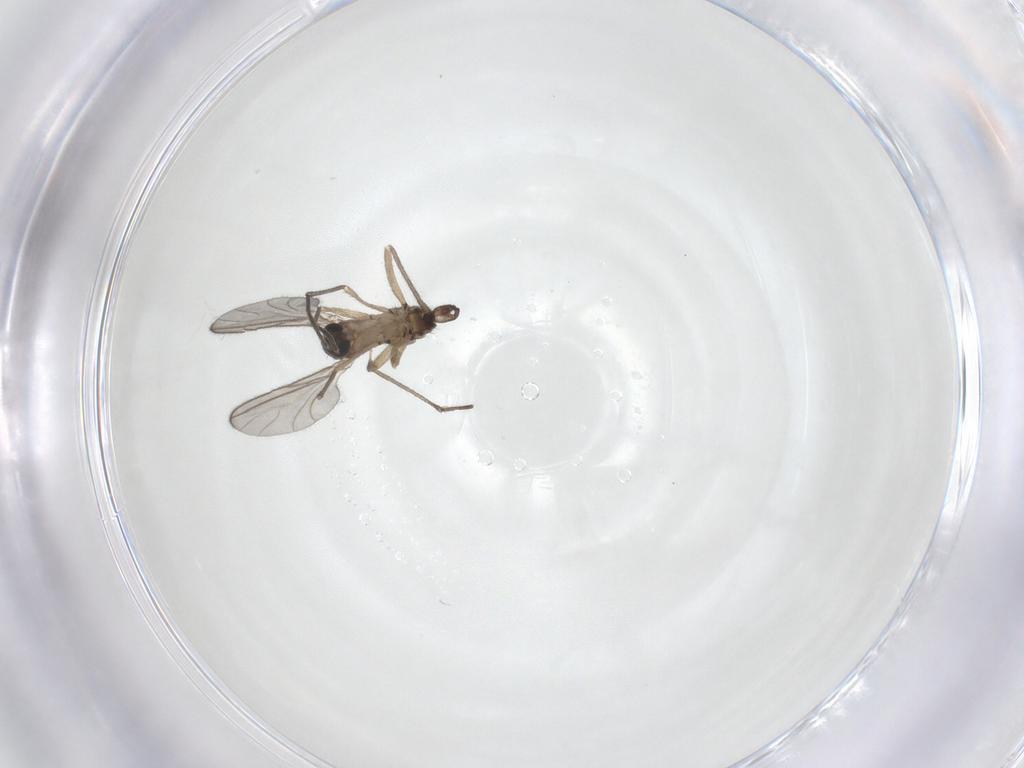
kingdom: Animalia
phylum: Arthropoda
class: Insecta
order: Diptera
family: Sciaridae
